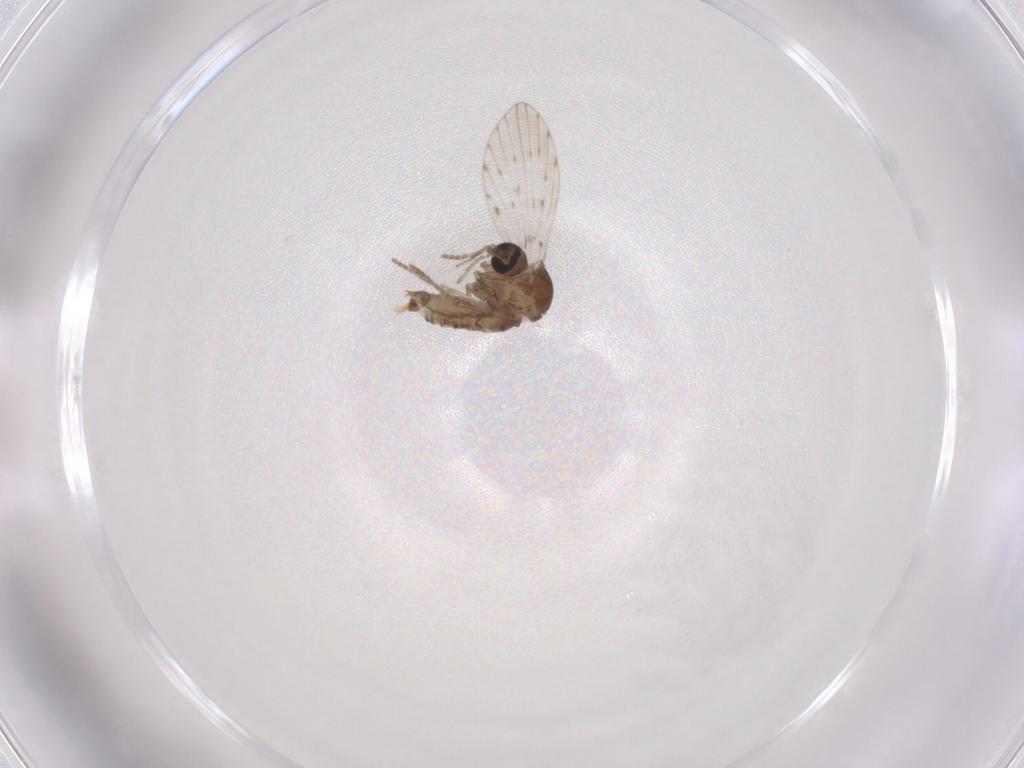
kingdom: Animalia
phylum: Arthropoda
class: Insecta
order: Diptera
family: Psychodidae
